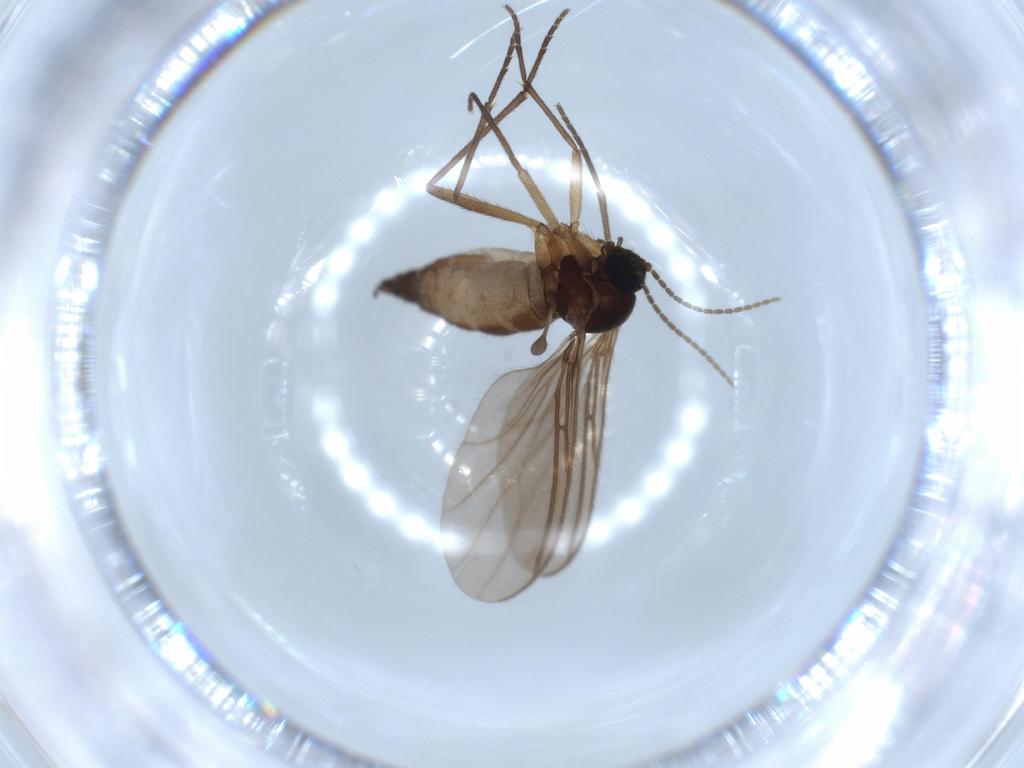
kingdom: Animalia
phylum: Arthropoda
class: Insecta
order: Diptera
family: Sciaridae
